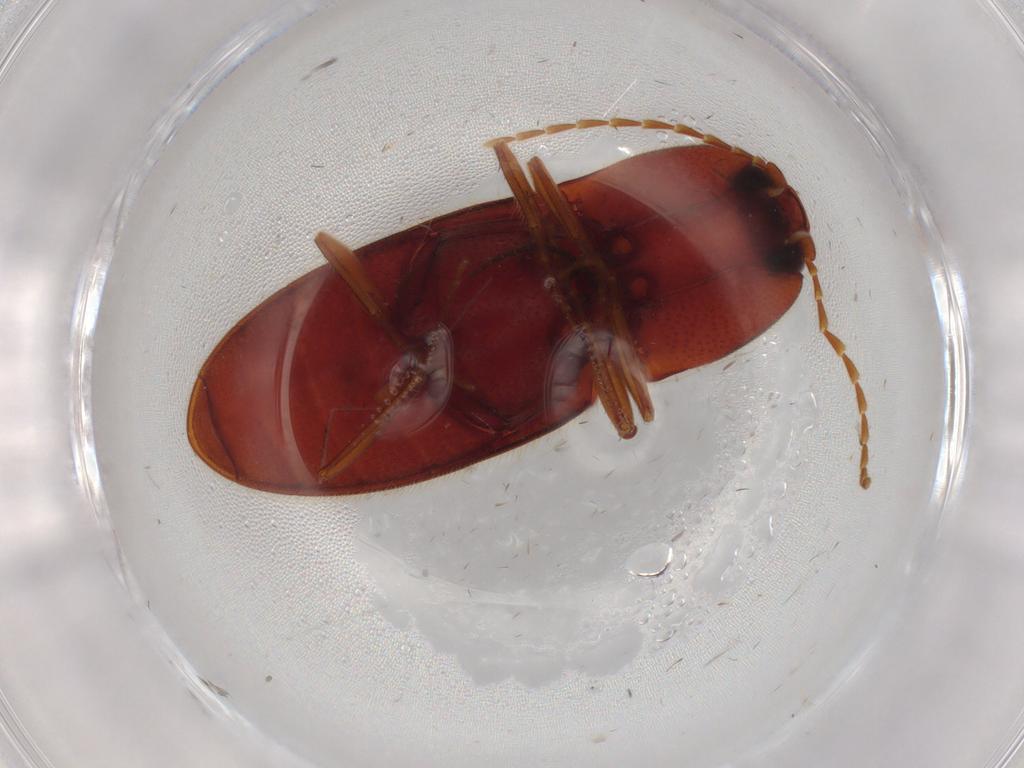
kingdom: Animalia
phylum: Arthropoda
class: Insecta
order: Coleoptera
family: Elateridae
